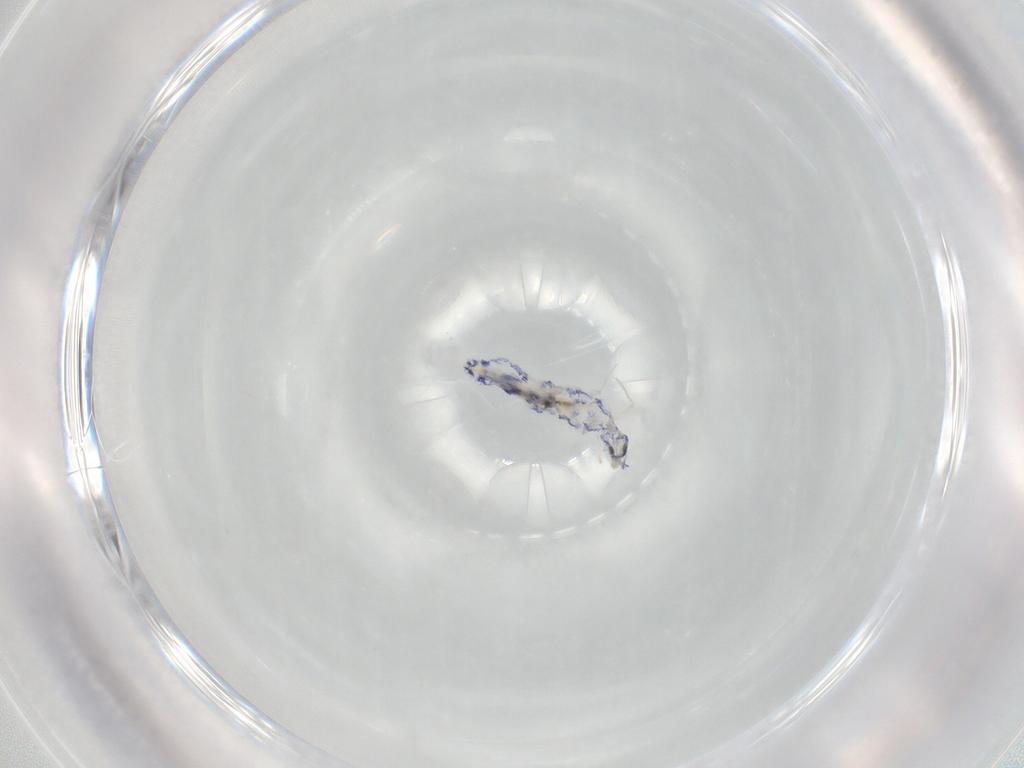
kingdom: Animalia
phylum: Arthropoda
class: Collembola
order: Entomobryomorpha
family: Entomobryidae
